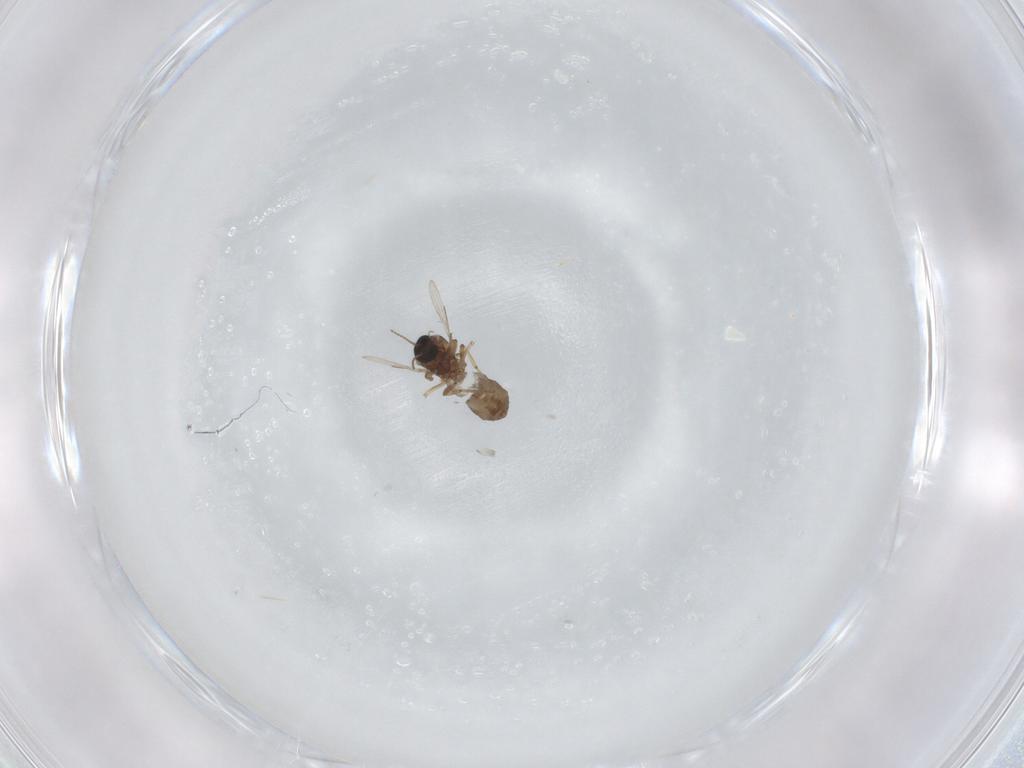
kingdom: Animalia
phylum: Arthropoda
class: Insecta
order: Diptera
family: Ceratopogonidae
